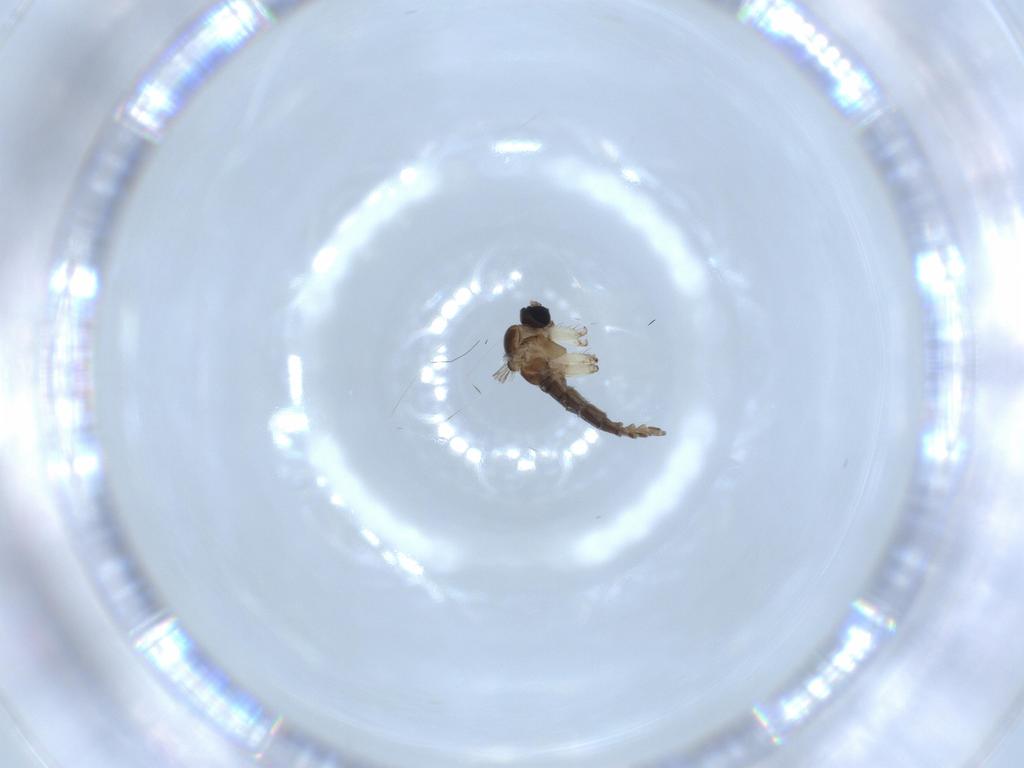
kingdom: Animalia
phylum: Arthropoda
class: Insecta
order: Diptera
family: Sciaridae
